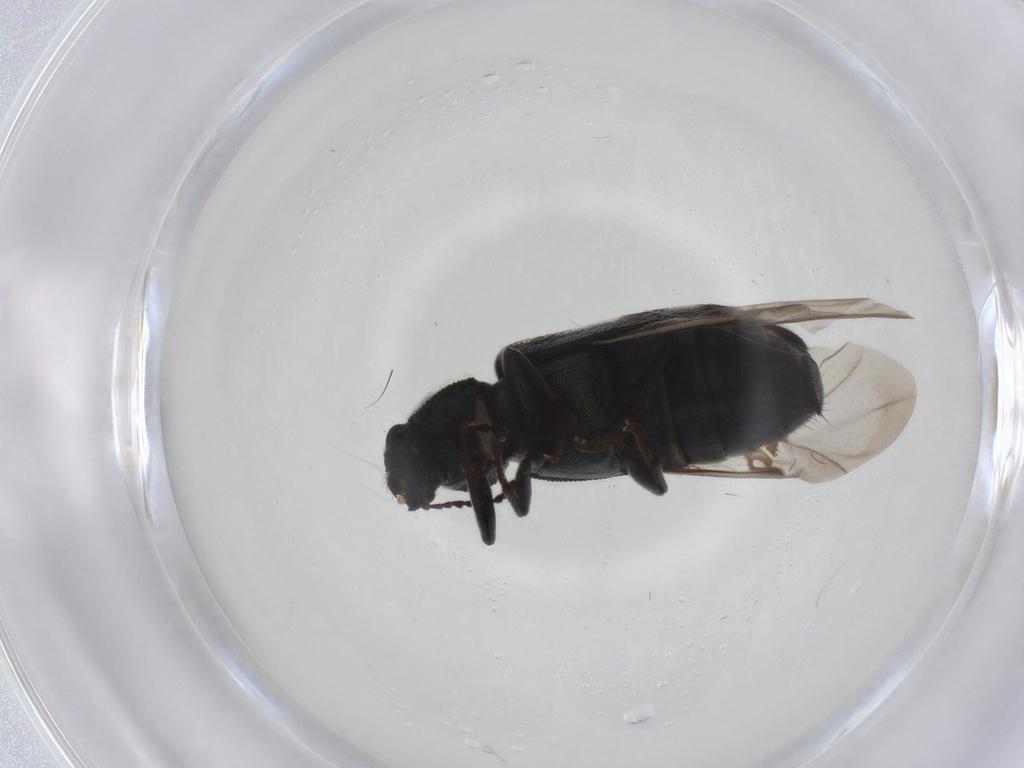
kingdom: Animalia
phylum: Arthropoda
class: Insecta
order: Coleoptera
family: Melyridae
